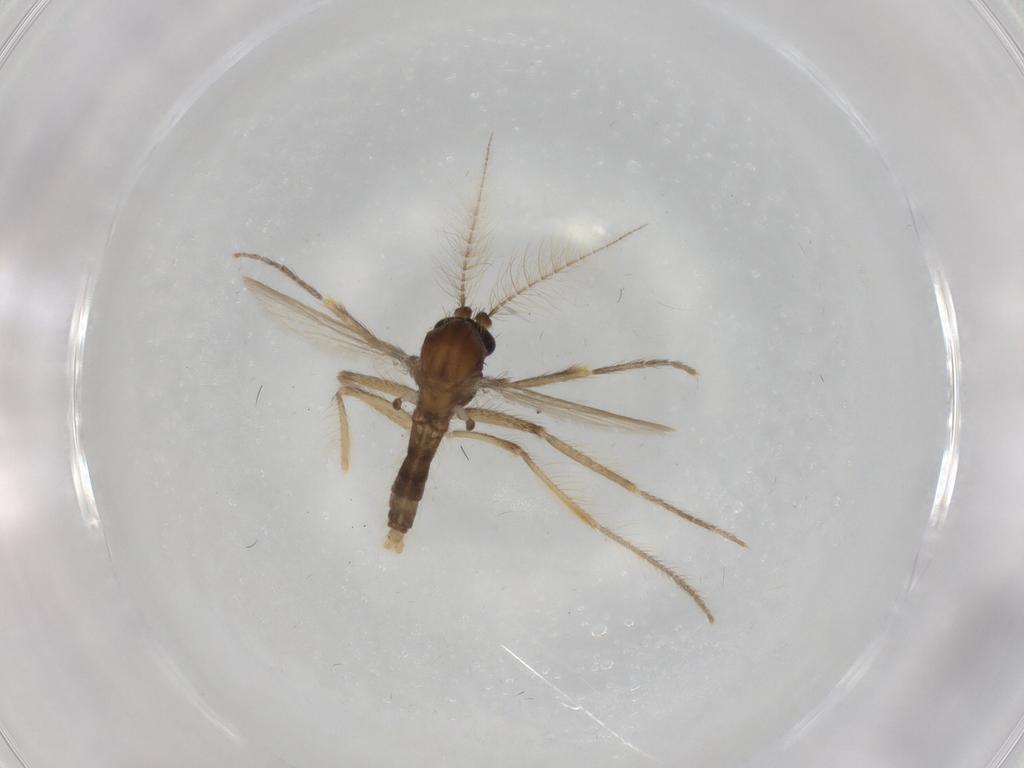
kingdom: Animalia
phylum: Arthropoda
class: Insecta
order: Diptera
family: Corethrellidae
